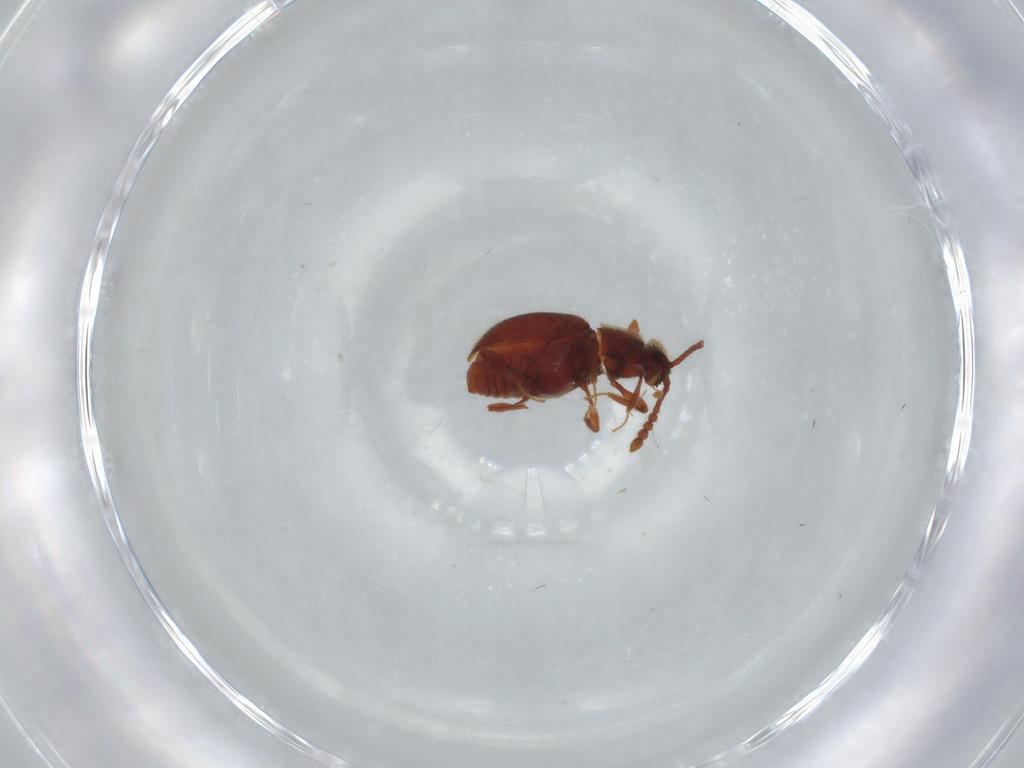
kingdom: Animalia
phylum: Arthropoda
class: Insecta
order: Coleoptera
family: Staphylinidae
